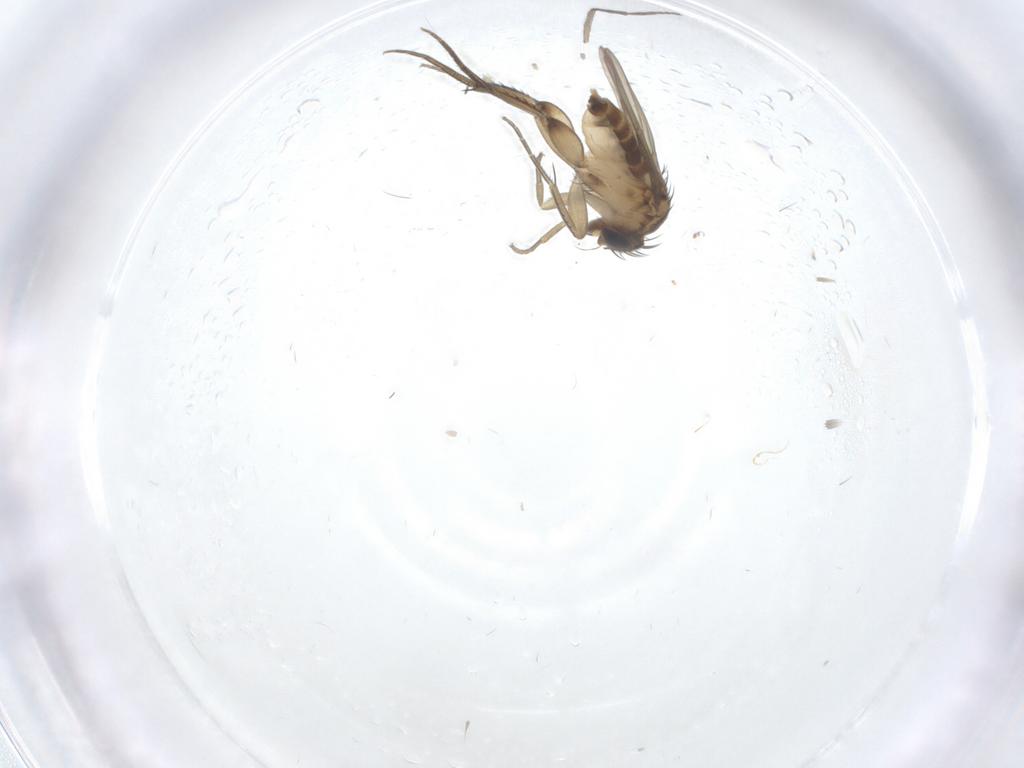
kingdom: Animalia
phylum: Arthropoda
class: Insecta
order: Diptera
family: Phoridae
